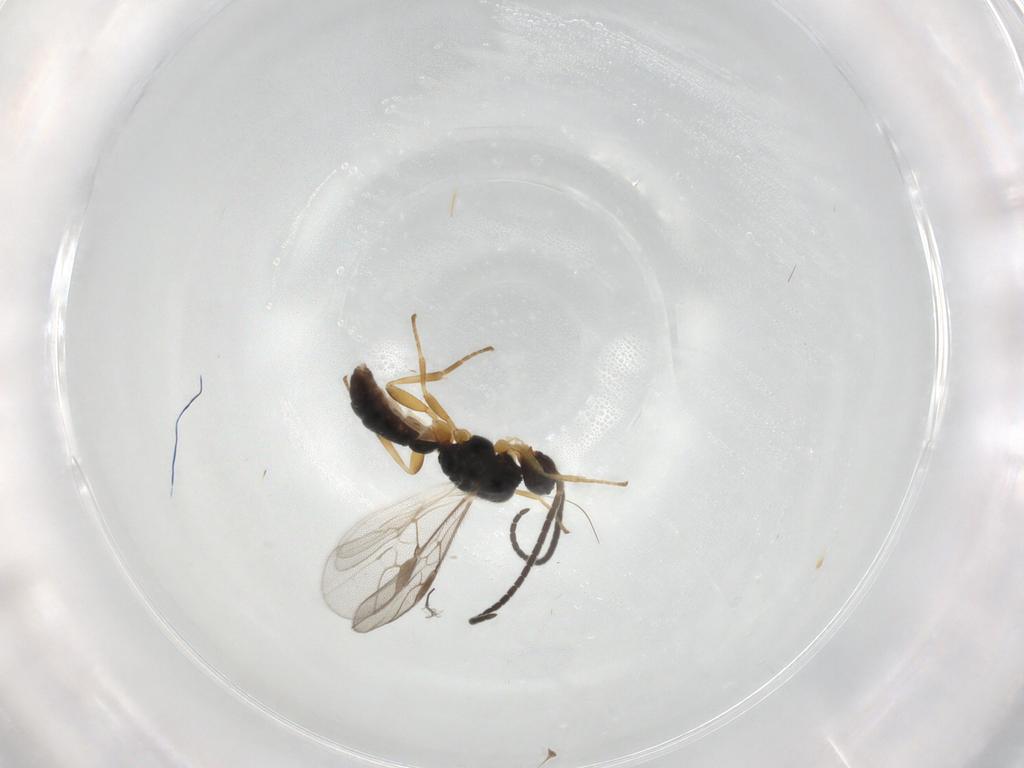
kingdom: Animalia
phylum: Arthropoda
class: Insecta
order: Hymenoptera
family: Braconidae
